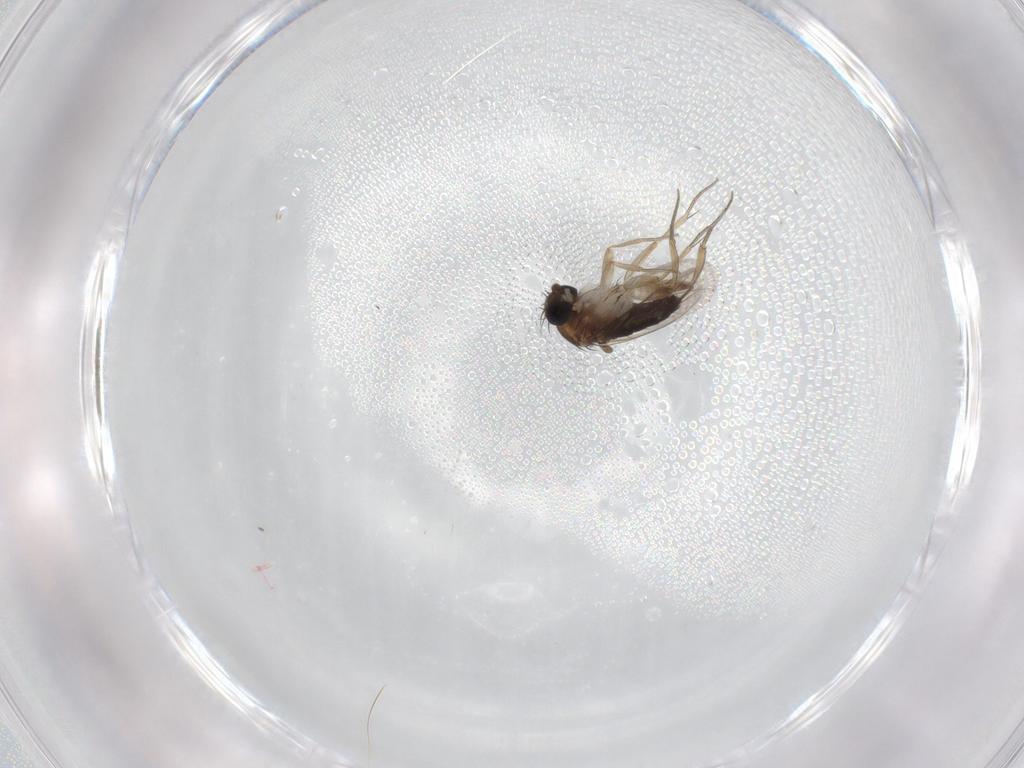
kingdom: Animalia
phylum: Arthropoda
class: Insecta
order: Diptera
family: Phoridae
